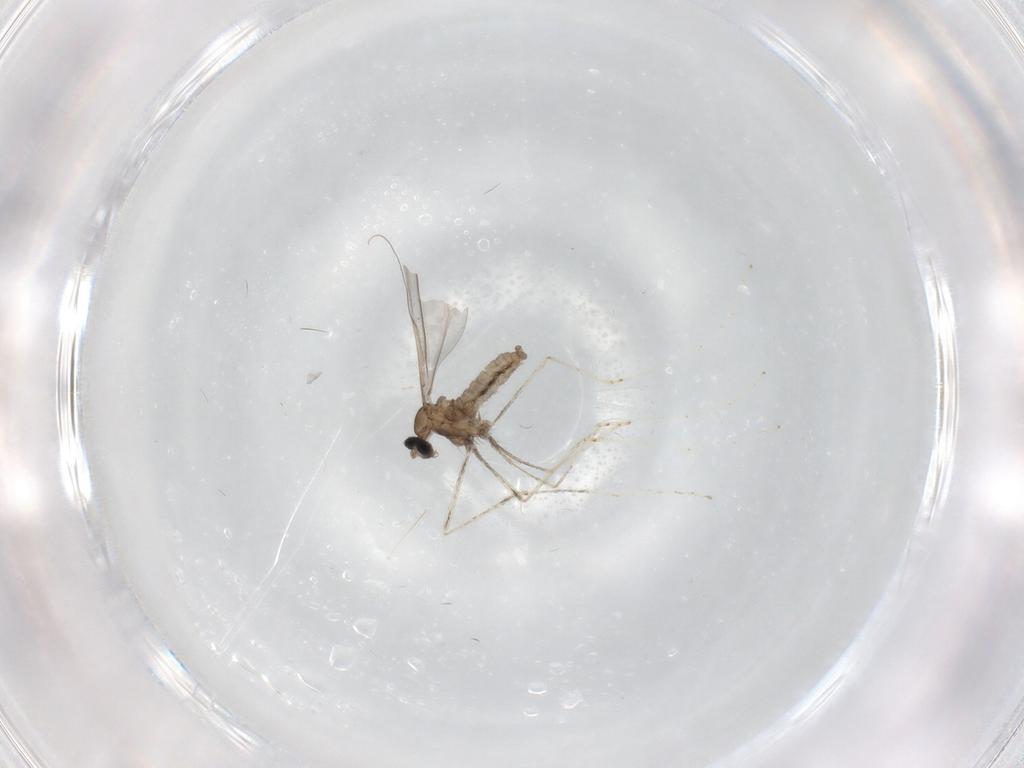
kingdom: Animalia
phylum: Arthropoda
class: Insecta
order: Diptera
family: Cecidomyiidae
